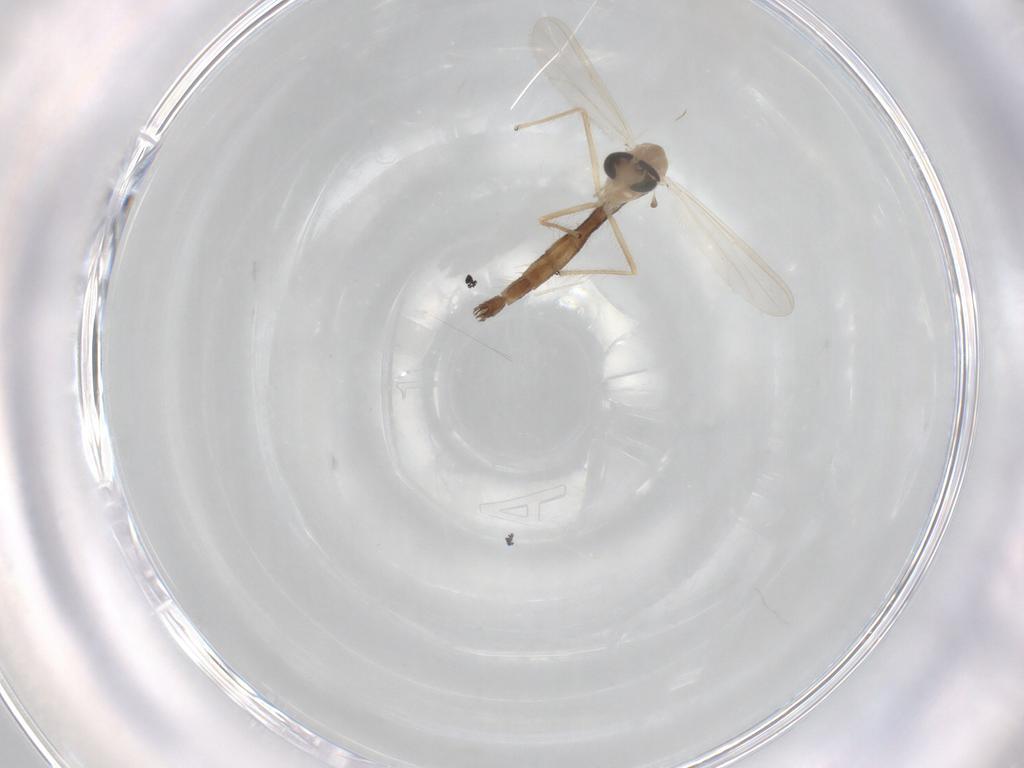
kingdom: Animalia
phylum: Arthropoda
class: Insecta
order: Diptera
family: Chironomidae
